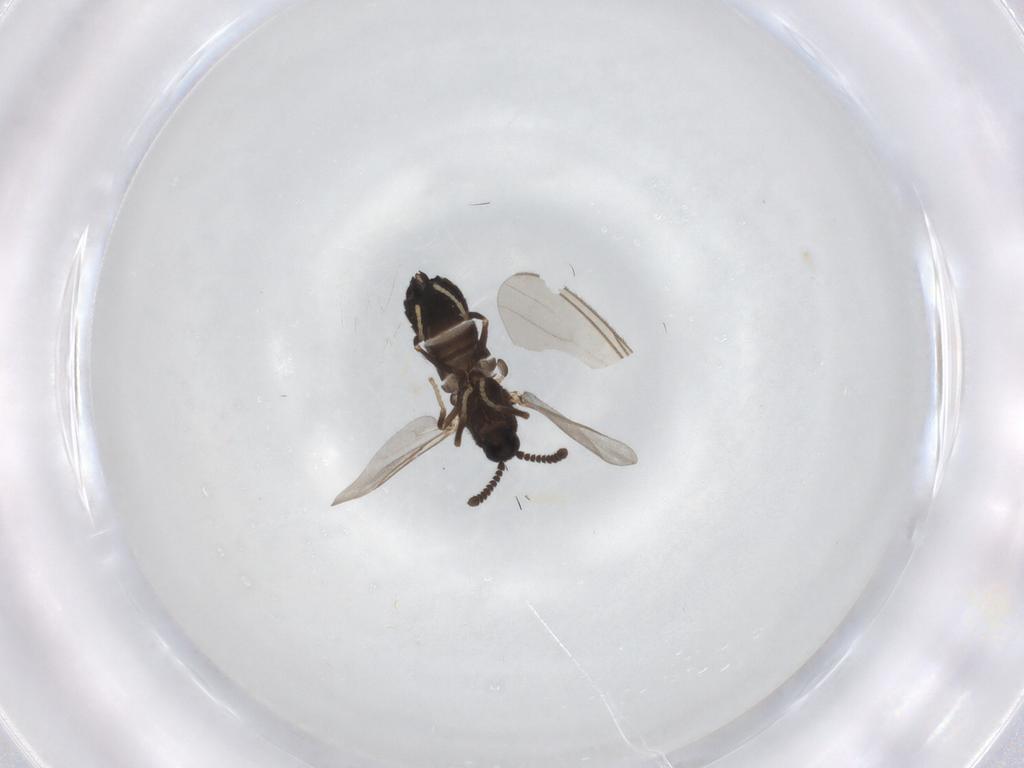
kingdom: Animalia
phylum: Arthropoda
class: Insecta
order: Diptera
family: Scatopsidae
